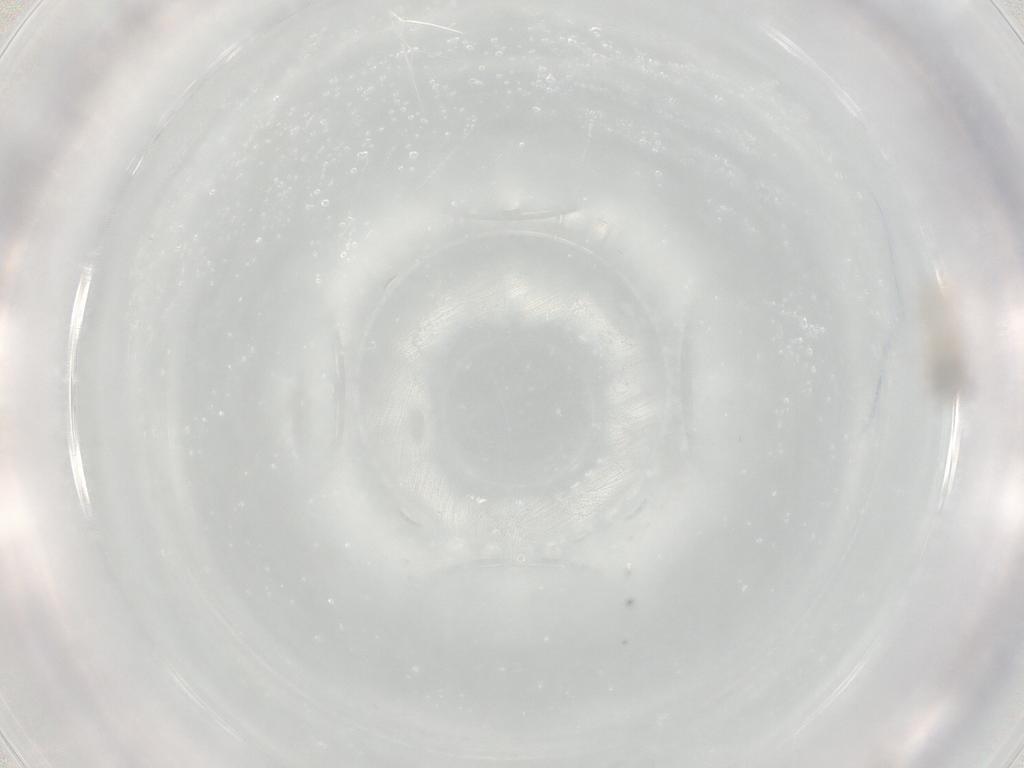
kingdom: Animalia
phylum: Arthropoda
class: Insecta
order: Diptera
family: Cecidomyiidae
